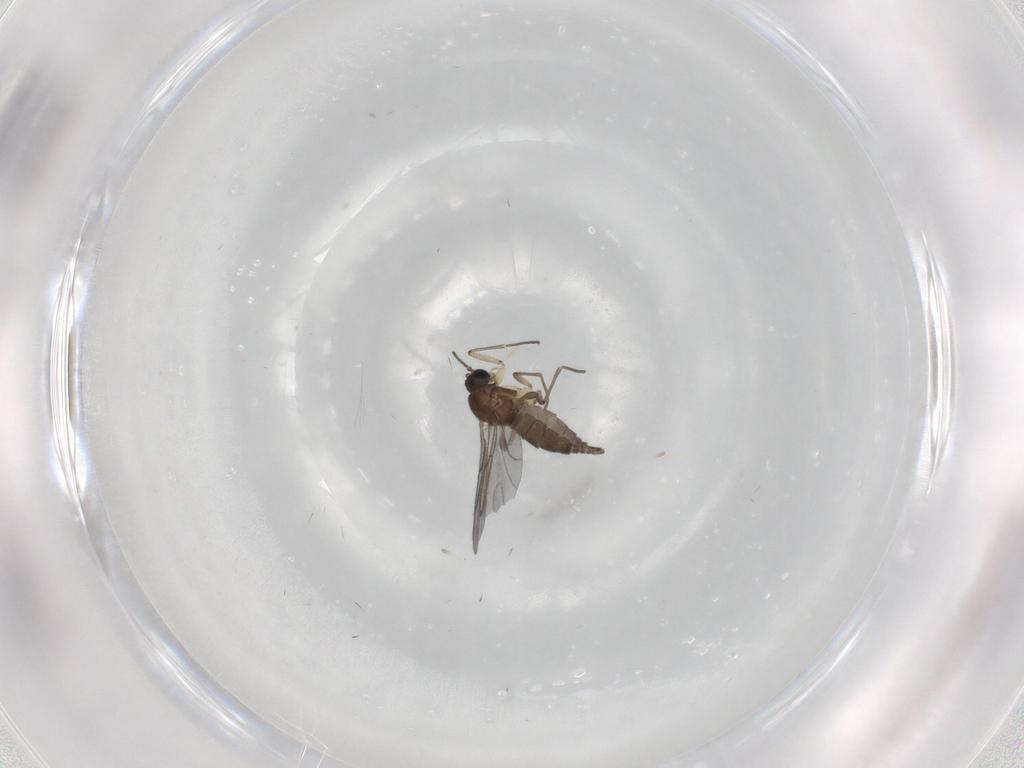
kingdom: Animalia
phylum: Arthropoda
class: Insecta
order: Diptera
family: Sciaridae
